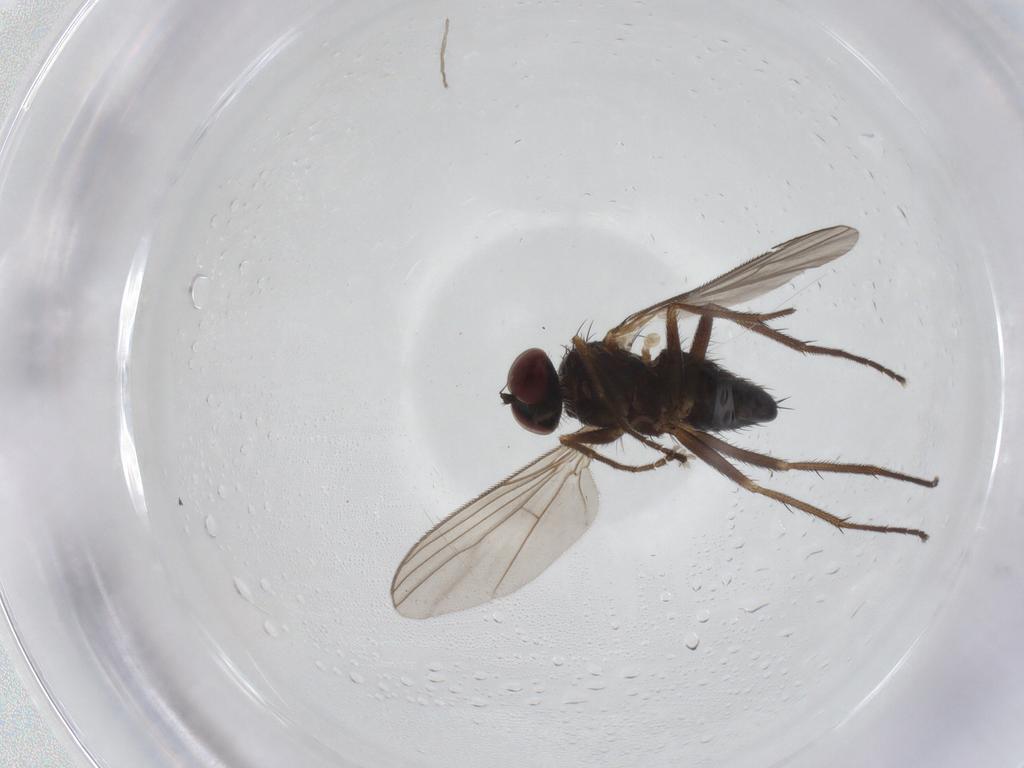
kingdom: Animalia
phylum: Arthropoda
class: Insecta
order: Diptera
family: Dolichopodidae
